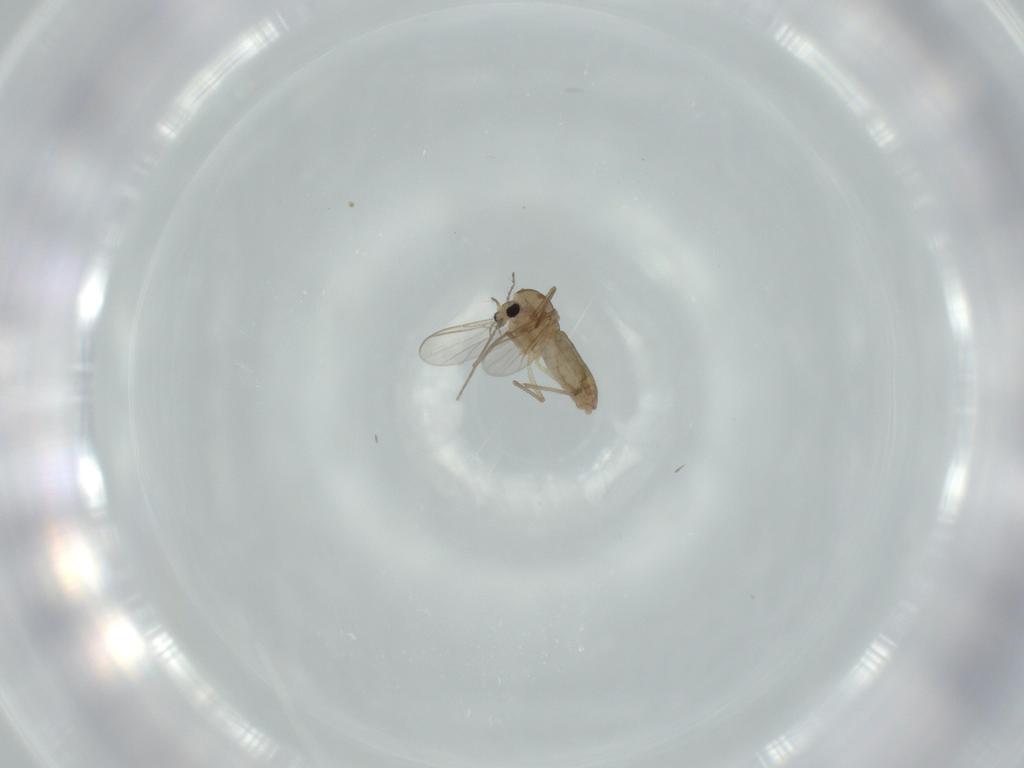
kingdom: Animalia
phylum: Arthropoda
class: Insecta
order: Diptera
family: Chironomidae
